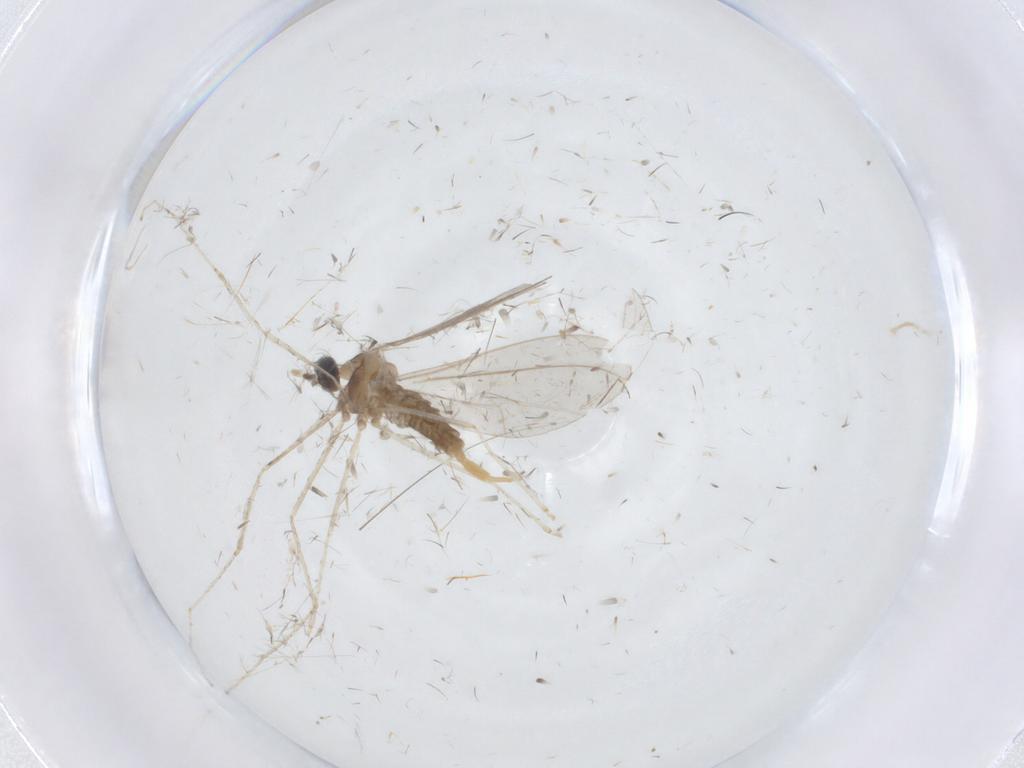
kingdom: Animalia
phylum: Arthropoda
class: Insecta
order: Diptera
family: Cecidomyiidae
